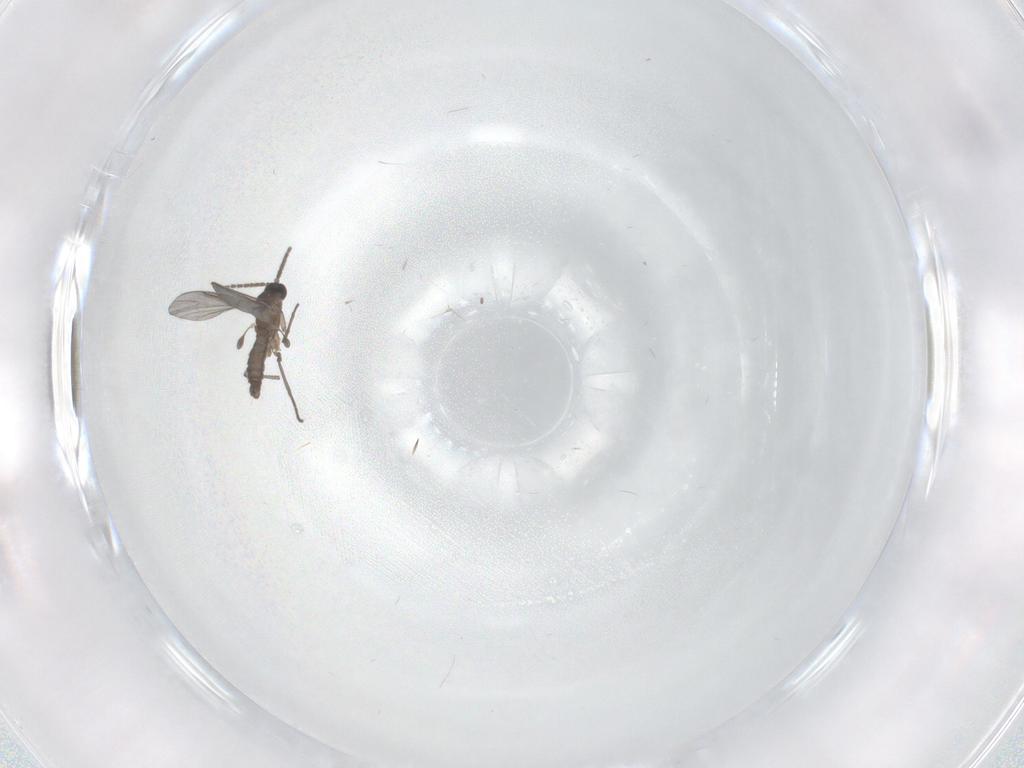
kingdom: Animalia
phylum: Arthropoda
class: Insecta
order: Diptera
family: Sciaridae
